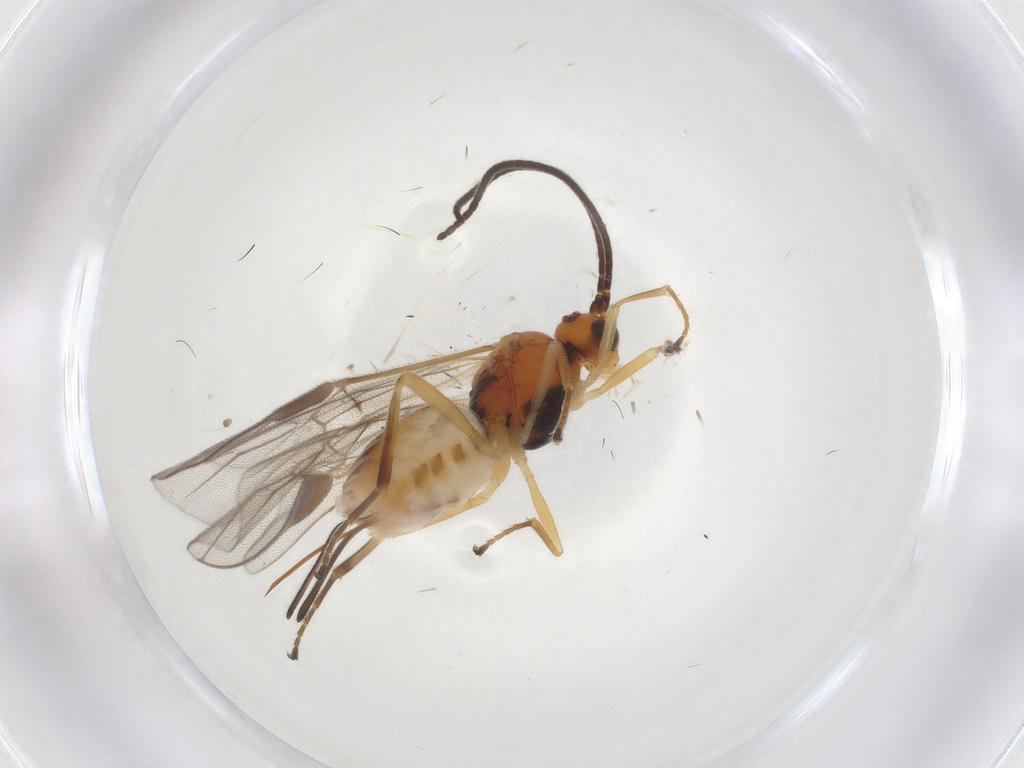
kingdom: Animalia
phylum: Arthropoda
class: Insecta
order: Hymenoptera
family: Braconidae
